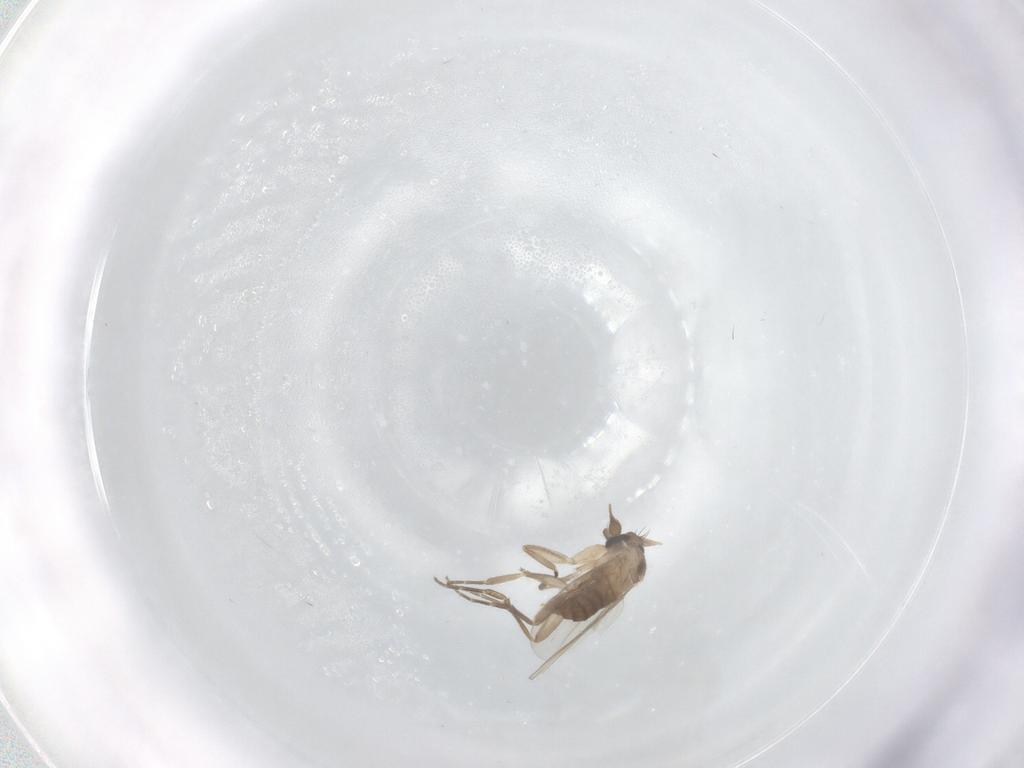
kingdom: Animalia
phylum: Arthropoda
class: Insecta
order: Diptera
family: Phoridae
